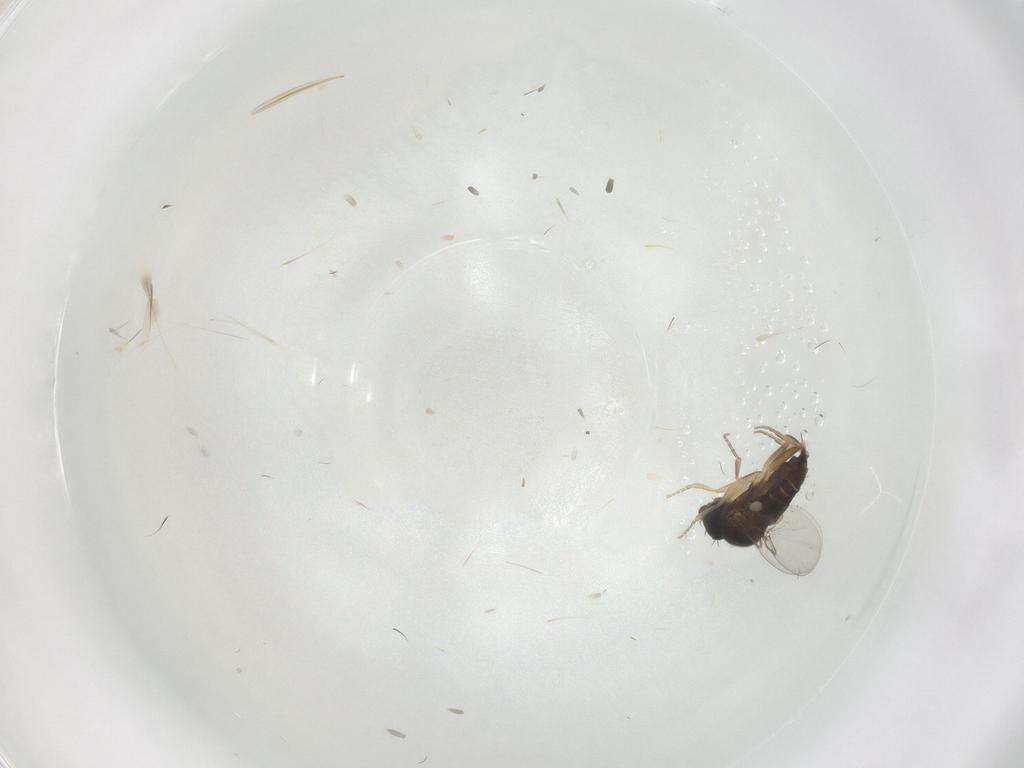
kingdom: Animalia
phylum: Arthropoda
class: Insecta
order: Diptera
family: Phoridae
